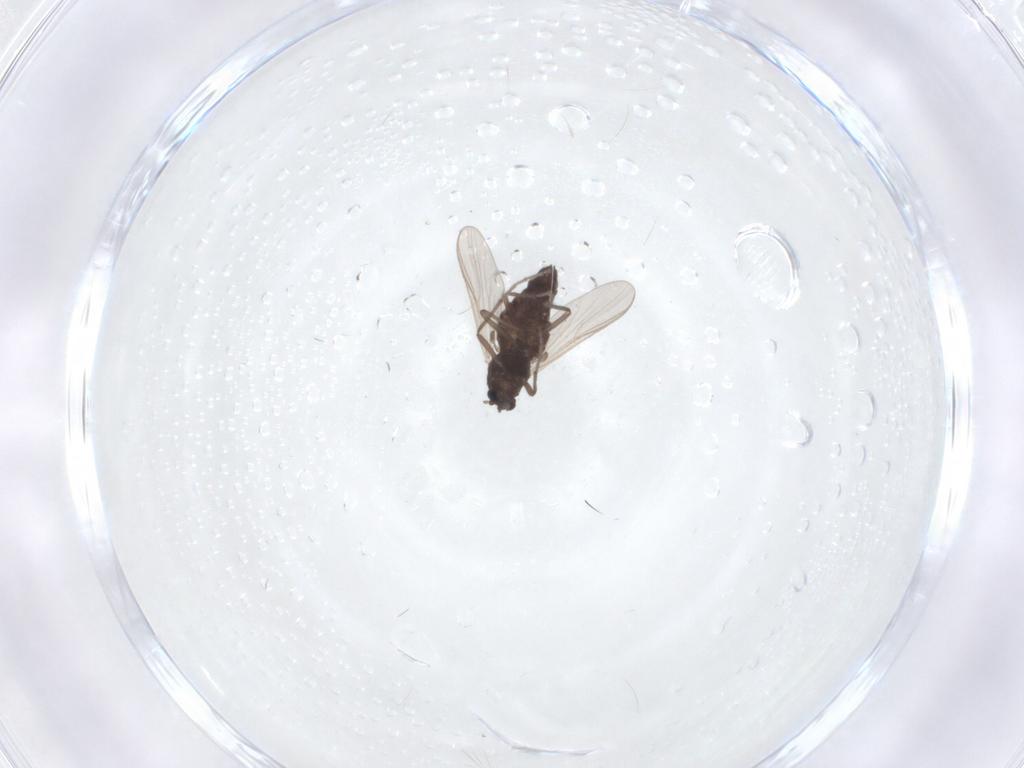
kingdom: Animalia
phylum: Arthropoda
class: Insecta
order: Diptera
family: Chironomidae
